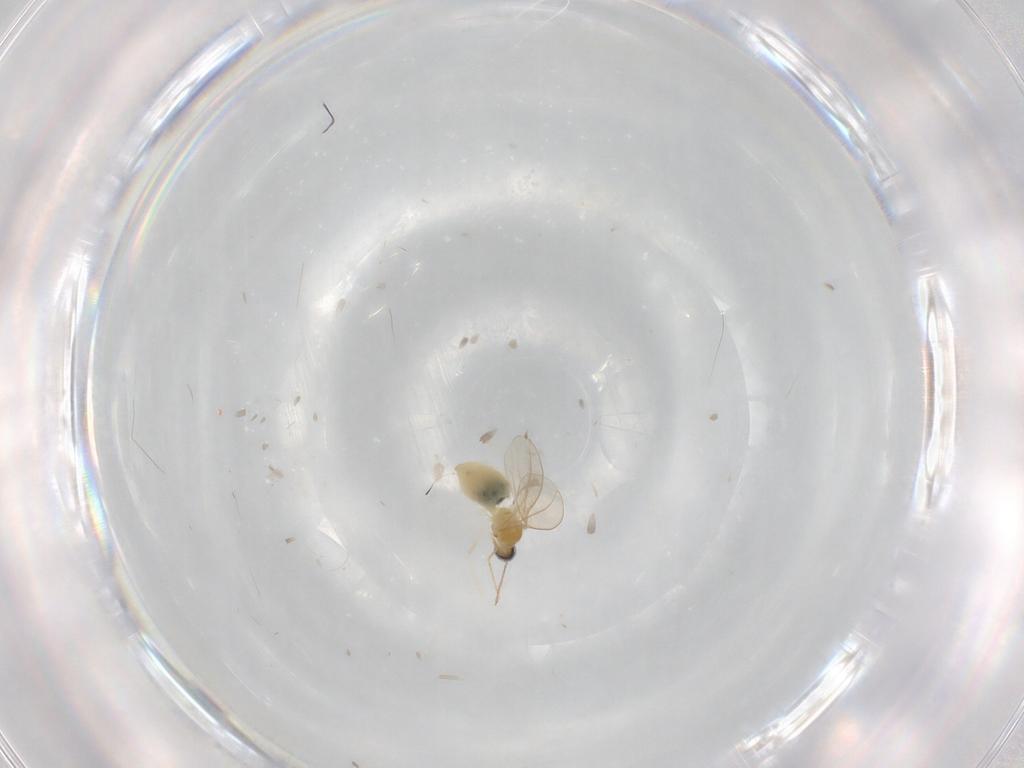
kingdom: Animalia
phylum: Arthropoda
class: Insecta
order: Diptera
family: Cecidomyiidae
